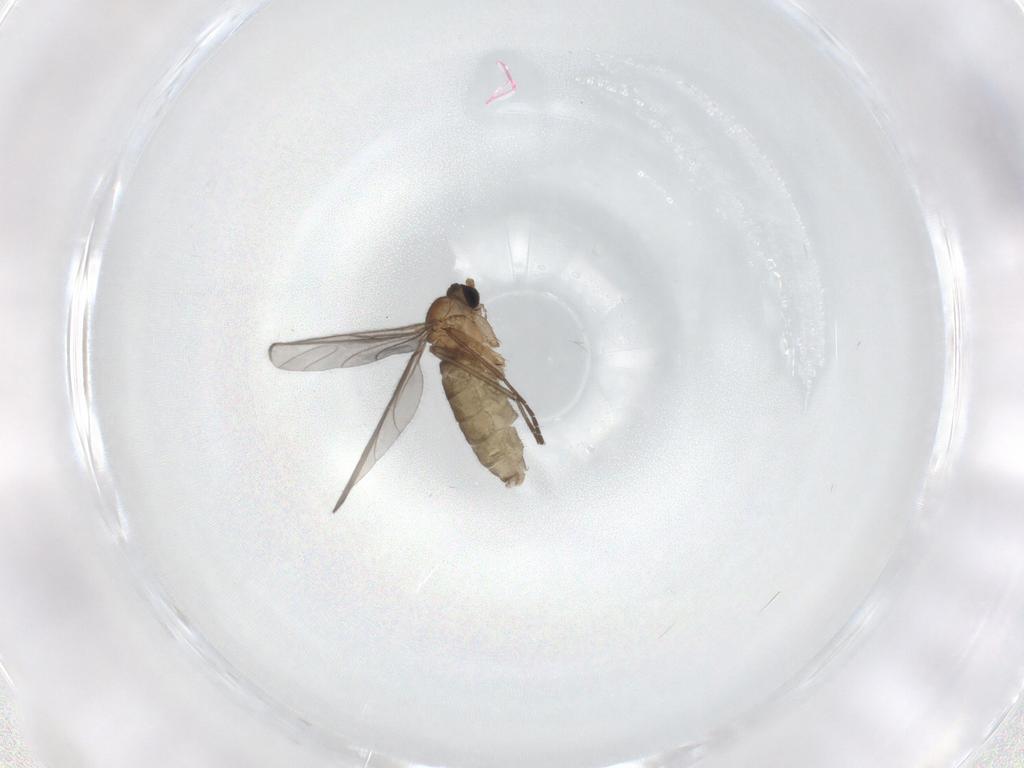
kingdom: Animalia
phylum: Arthropoda
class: Insecta
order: Diptera
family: Sciaridae
